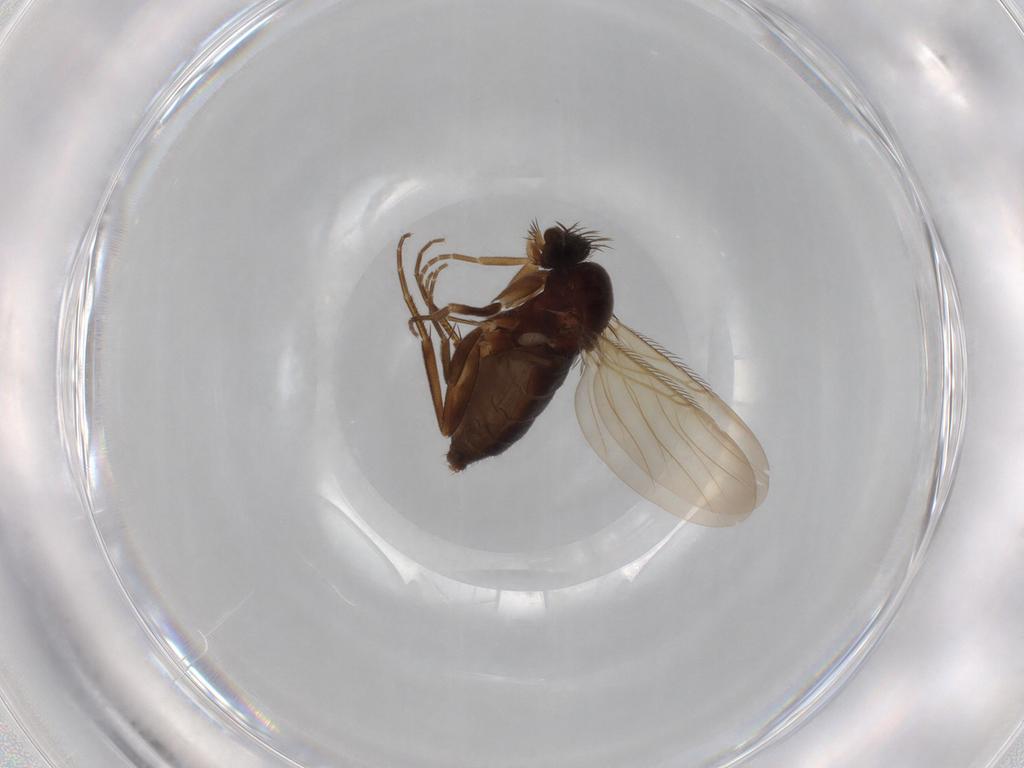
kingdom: Animalia
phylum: Arthropoda
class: Insecta
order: Diptera
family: Phoridae
